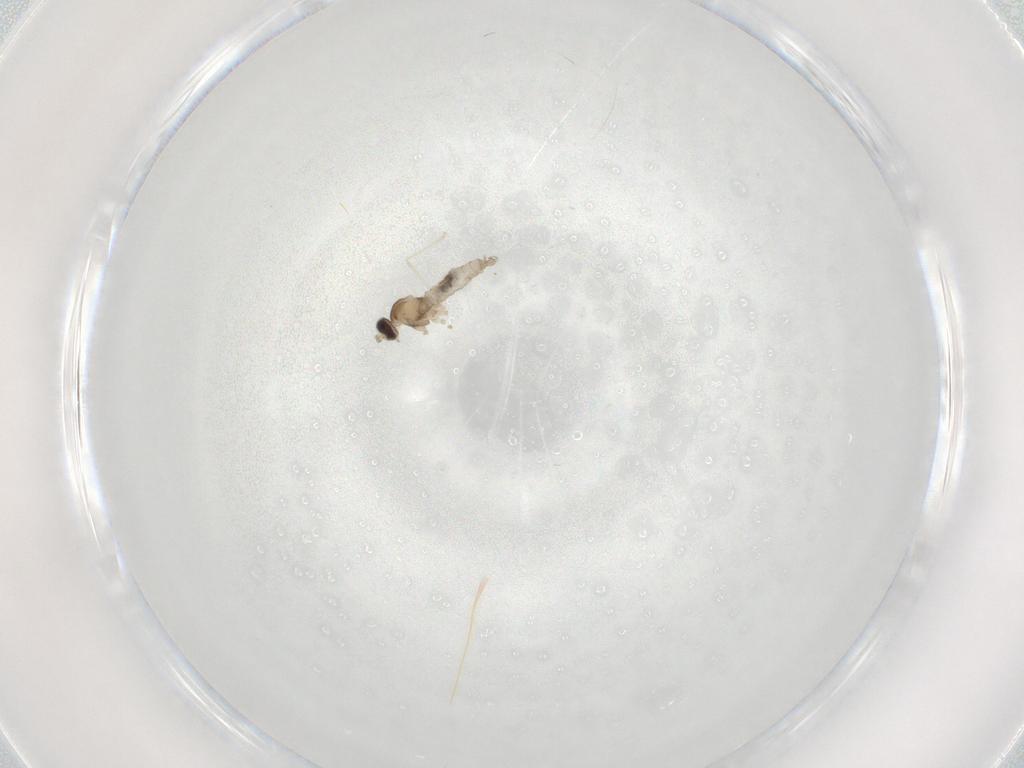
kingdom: Animalia
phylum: Arthropoda
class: Insecta
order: Diptera
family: Cecidomyiidae
